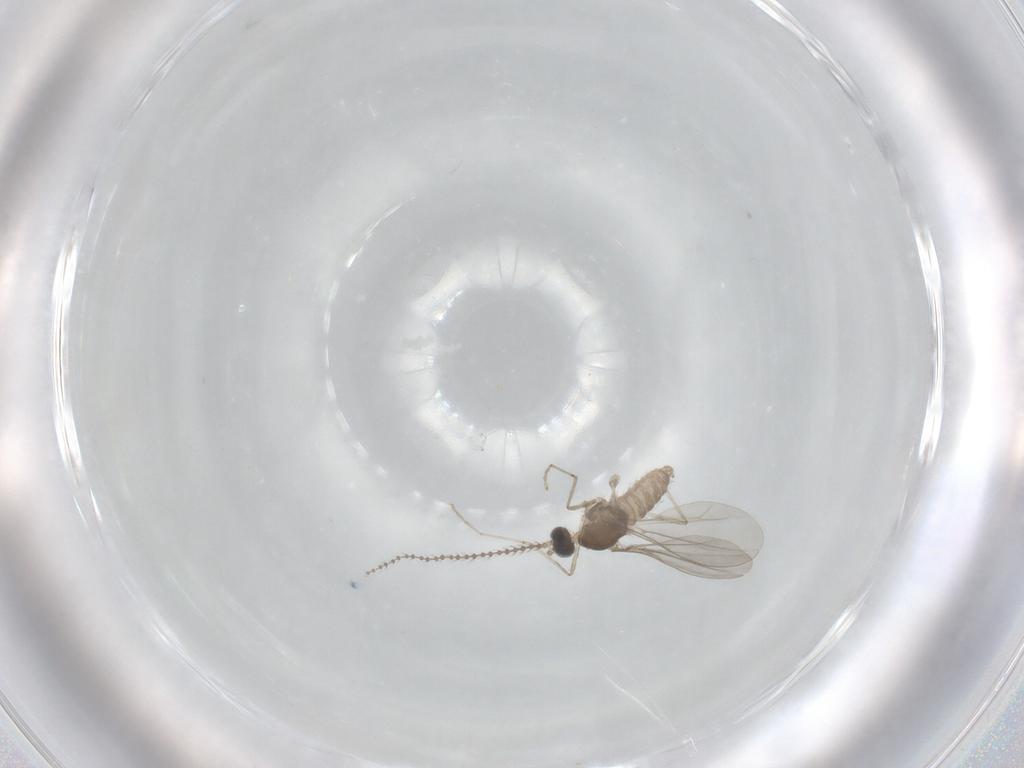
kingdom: Animalia
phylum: Arthropoda
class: Insecta
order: Diptera
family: Cecidomyiidae
